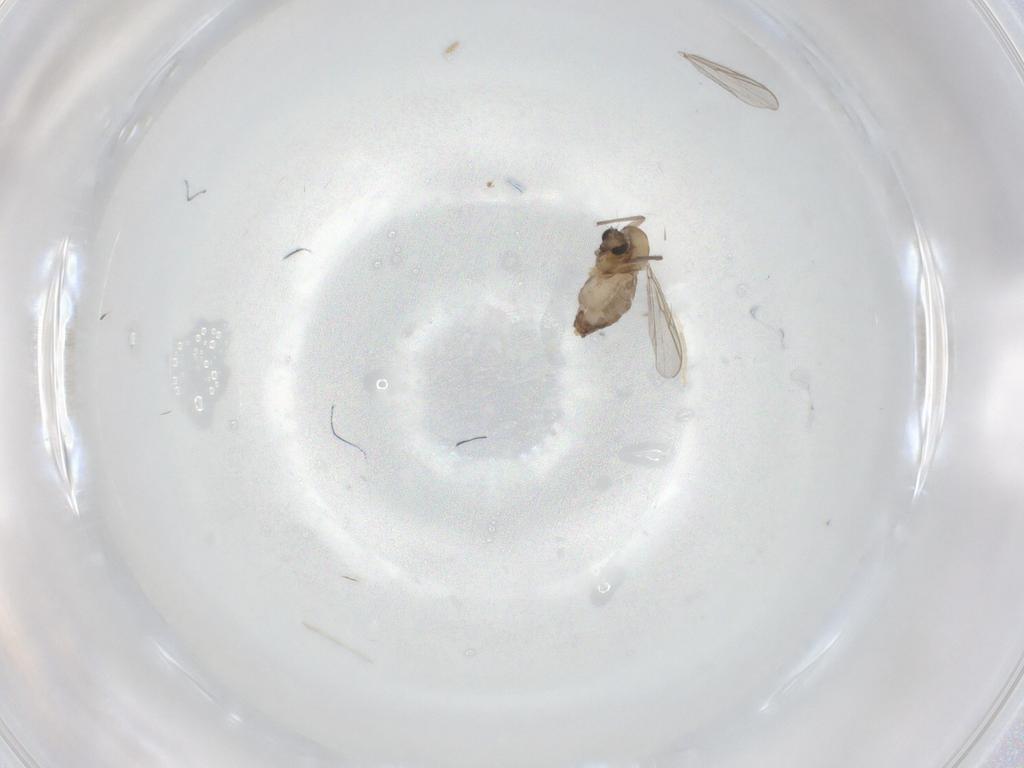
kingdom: Animalia
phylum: Arthropoda
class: Insecta
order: Diptera
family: Chironomidae
